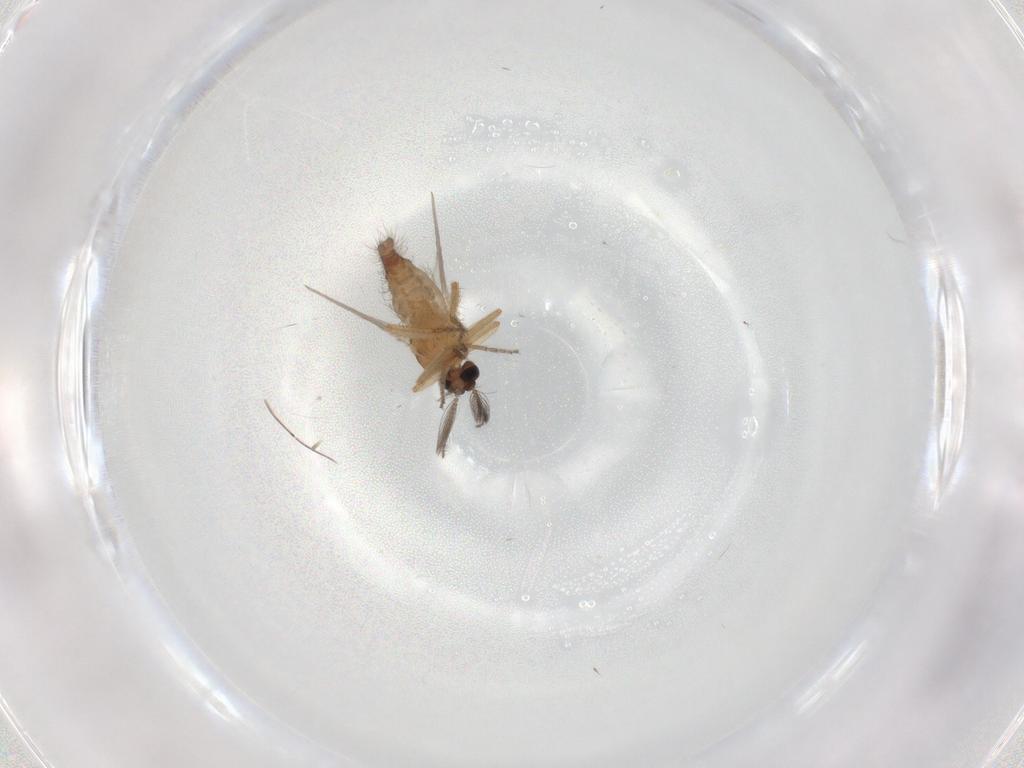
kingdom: Animalia
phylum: Arthropoda
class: Insecta
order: Diptera
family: Ceratopogonidae
